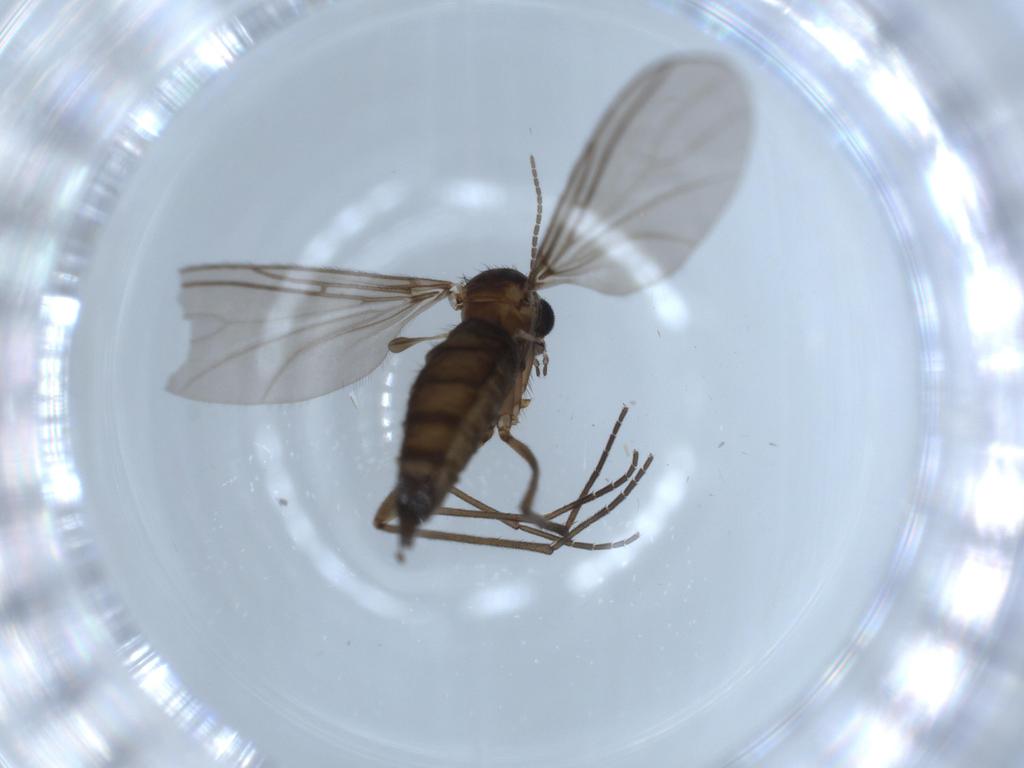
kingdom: Animalia
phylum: Arthropoda
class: Insecta
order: Diptera
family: Sciaridae
